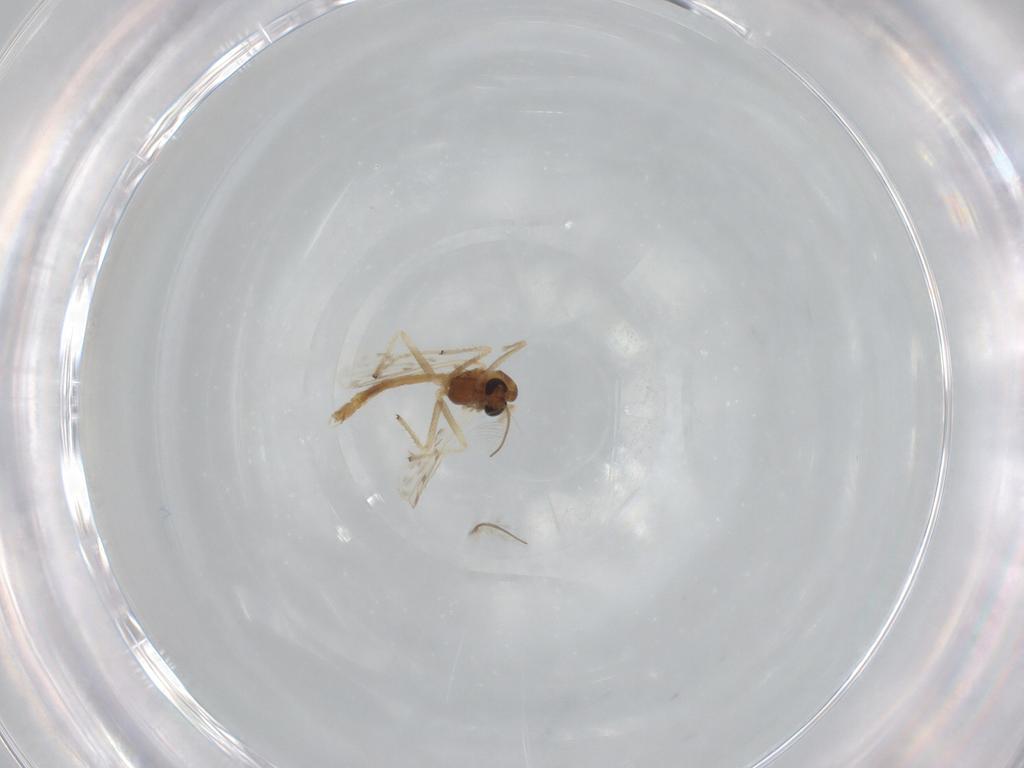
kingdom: Animalia
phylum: Arthropoda
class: Insecta
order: Diptera
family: Chironomidae
